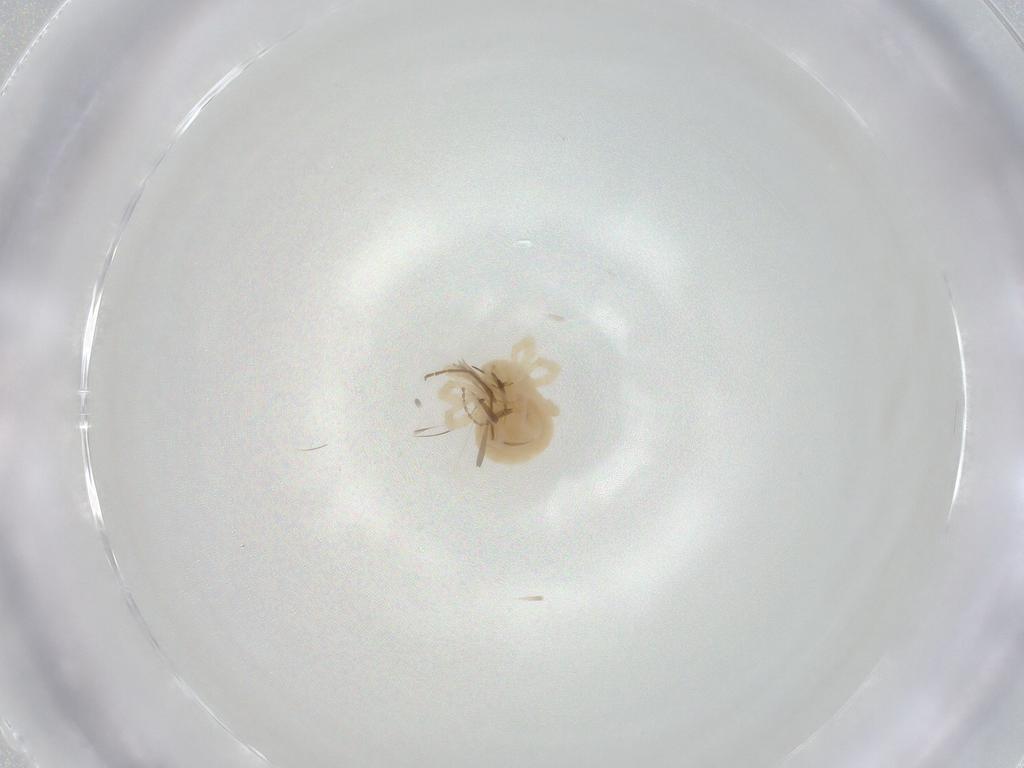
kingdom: Animalia
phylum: Arthropoda
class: Arachnida
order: Trombidiformes
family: Anystidae
